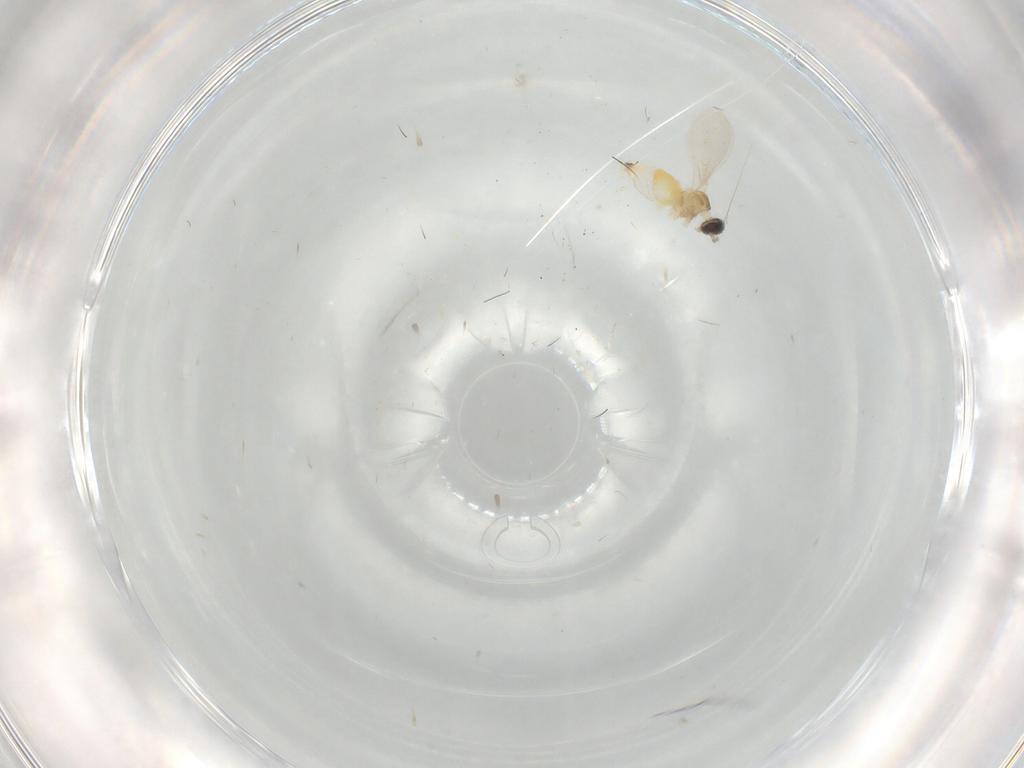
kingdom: Animalia
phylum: Arthropoda
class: Insecta
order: Diptera
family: Cecidomyiidae
